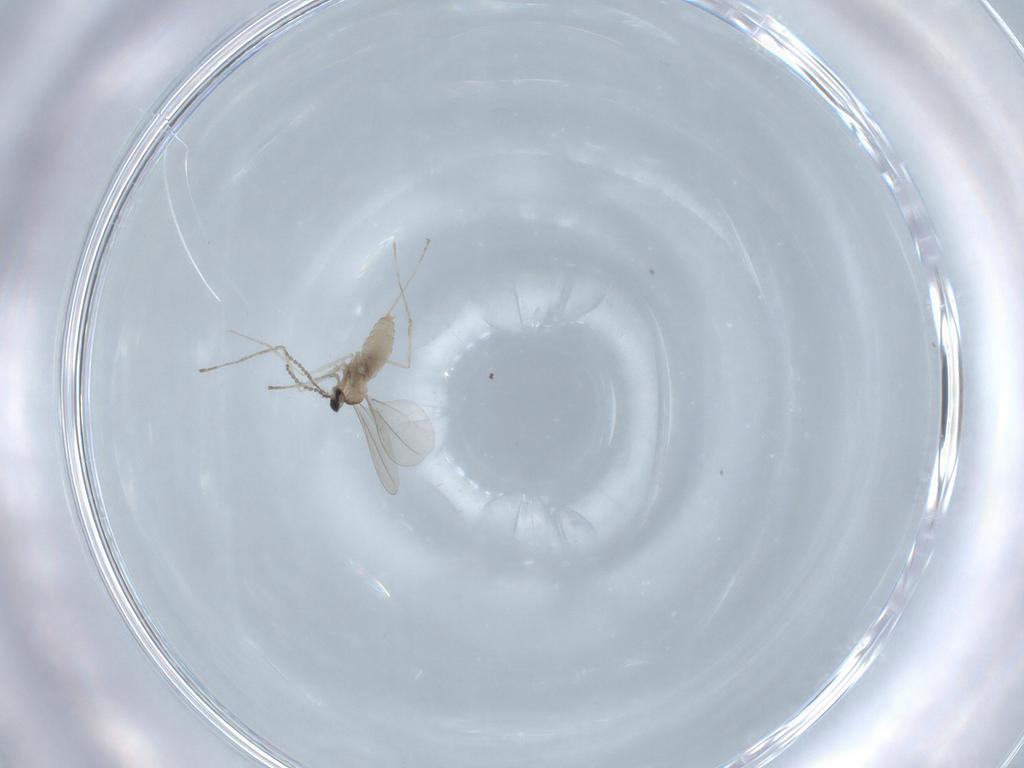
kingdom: Animalia
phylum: Arthropoda
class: Insecta
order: Diptera
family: Cecidomyiidae
